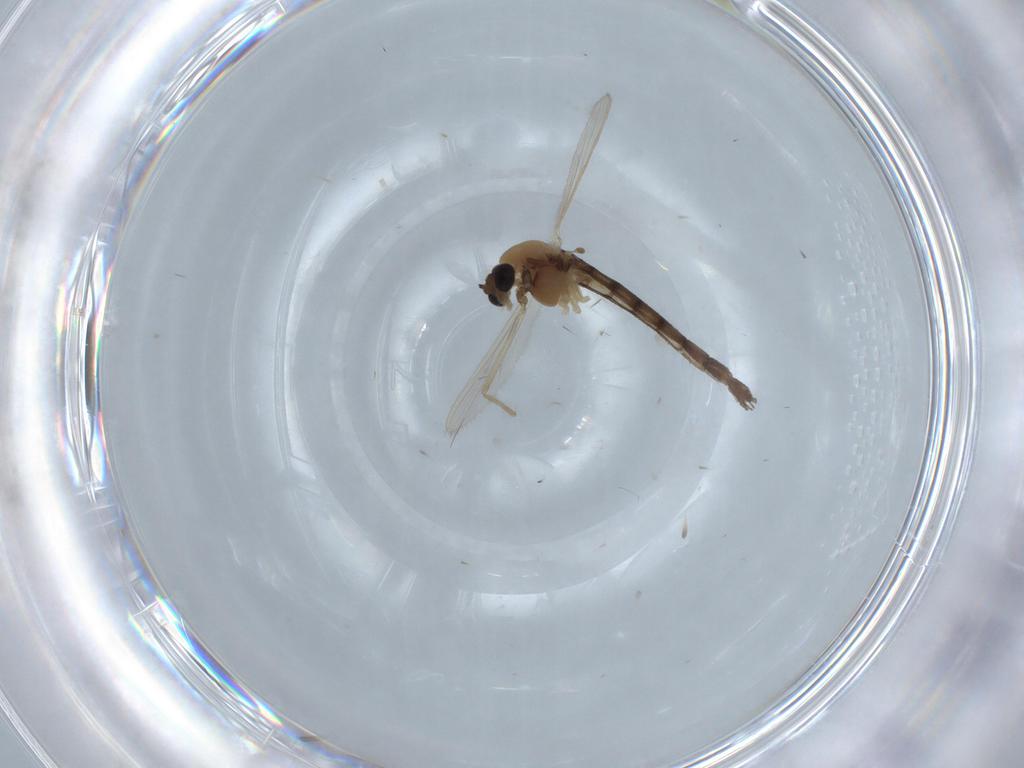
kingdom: Animalia
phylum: Arthropoda
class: Insecta
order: Diptera
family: Chironomidae
